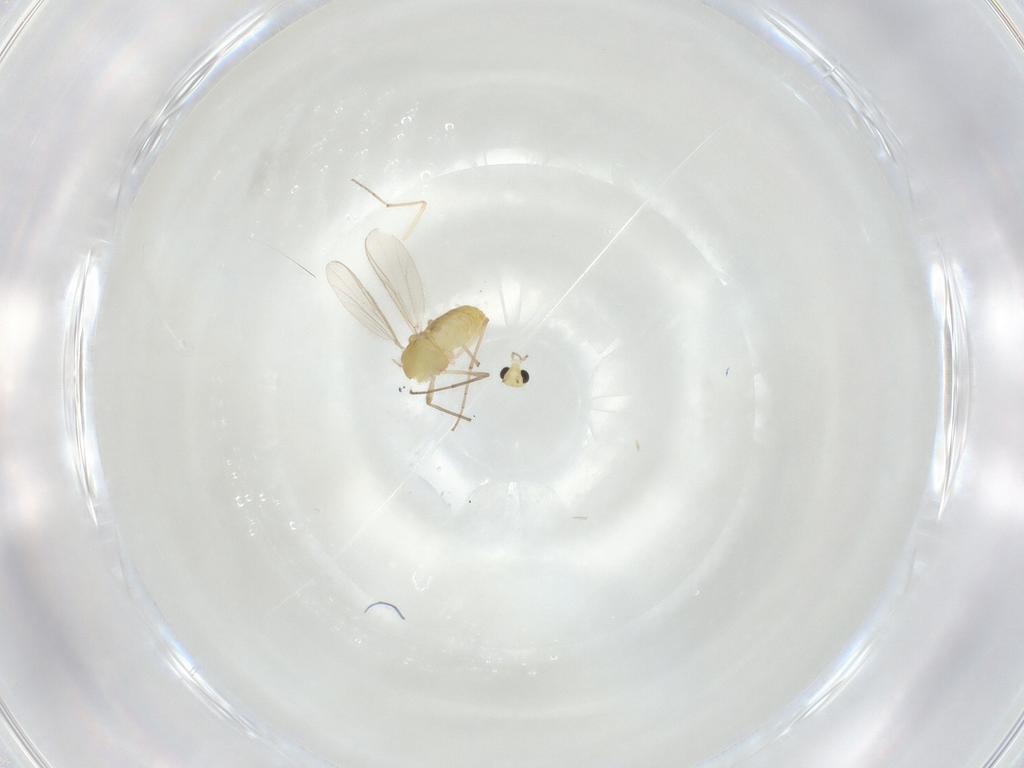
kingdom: Animalia
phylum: Arthropoda
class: Insecta
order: Diptera
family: Chironomidae
